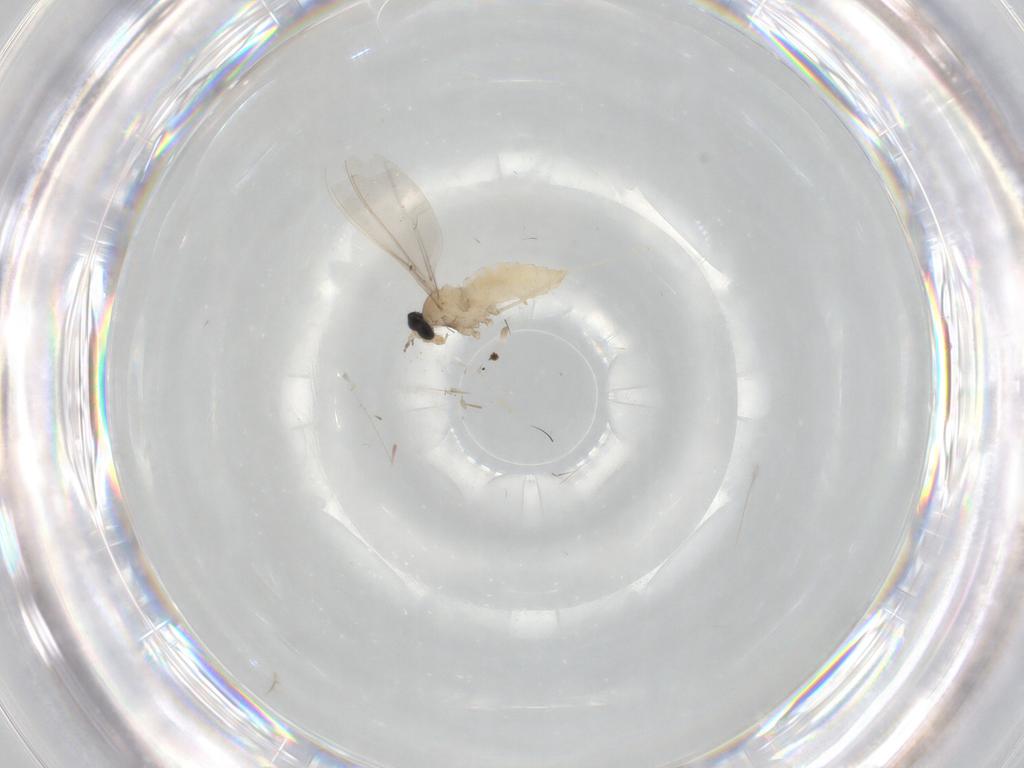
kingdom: Animalia
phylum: Arthropoda
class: Insecta
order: Diptera
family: Cecidomyiidae
